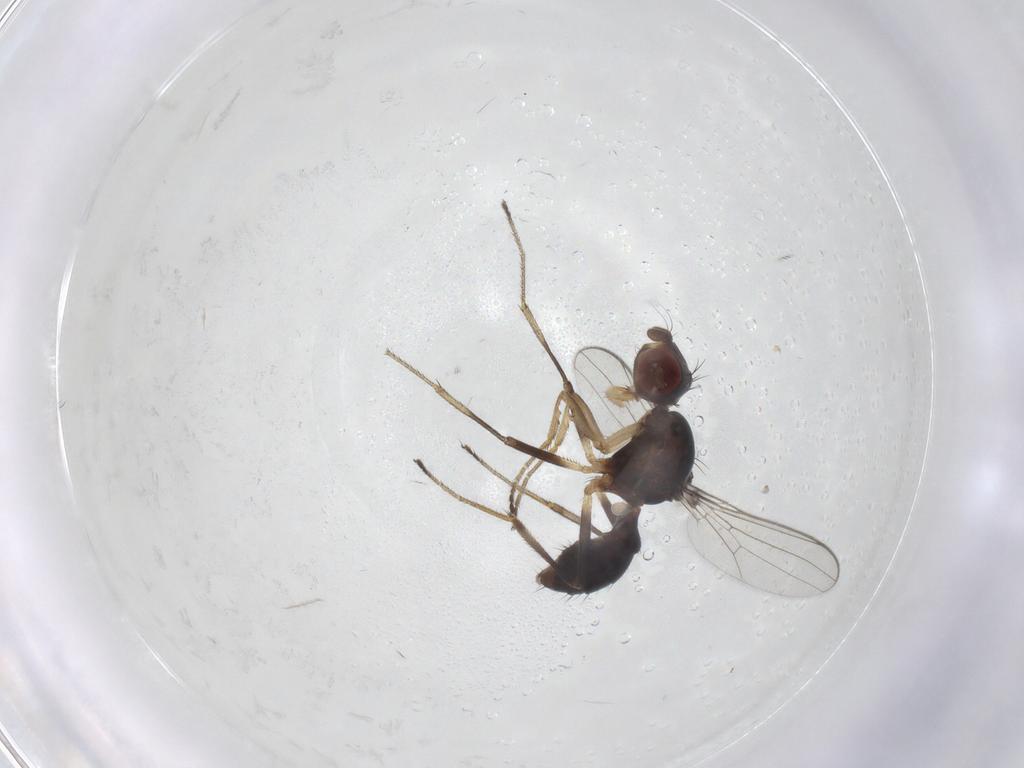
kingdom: Animalia
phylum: Arthropoda
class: Insecta
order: Diptera
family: Sepsidae
